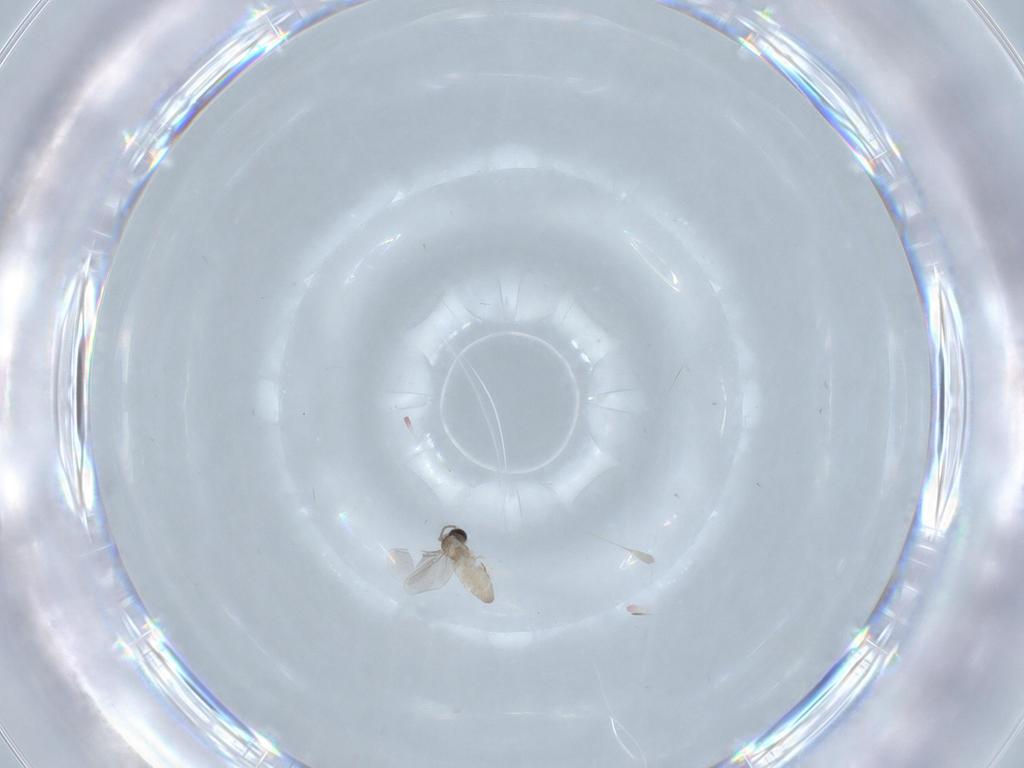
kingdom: Animalia
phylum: Arthropoda
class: Insecta
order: Diptera
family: Cecidomyiidae
